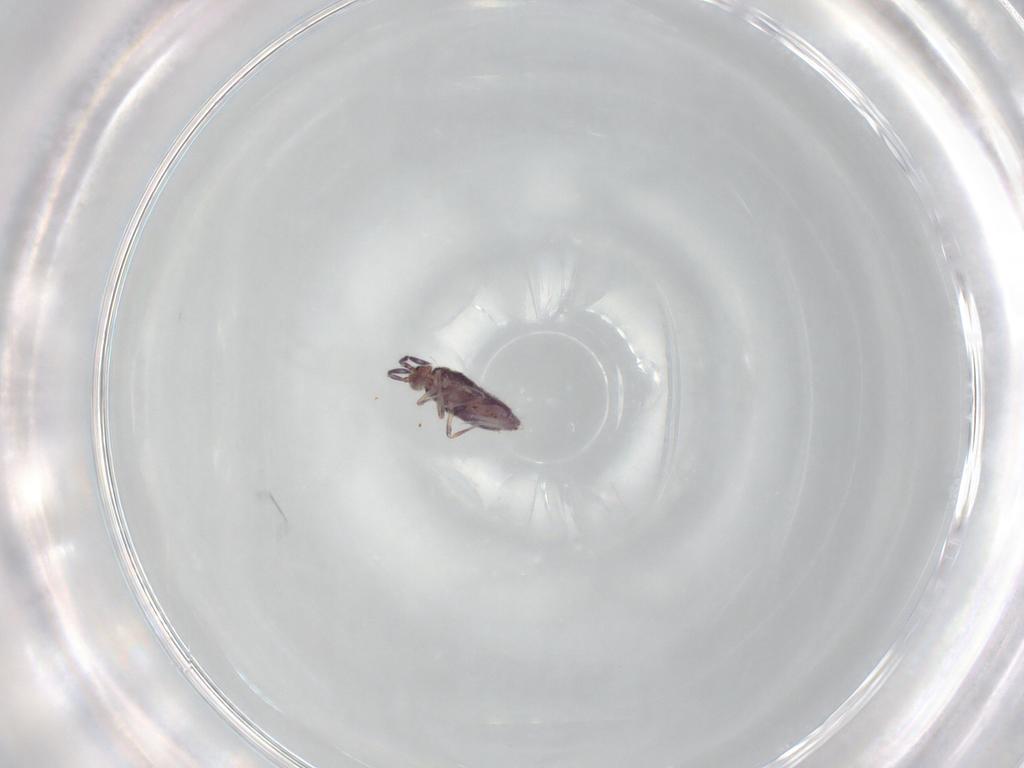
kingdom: Animalia
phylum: Arthropoda
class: Collembola
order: Entomobryomorpha
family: Entomobryidae
